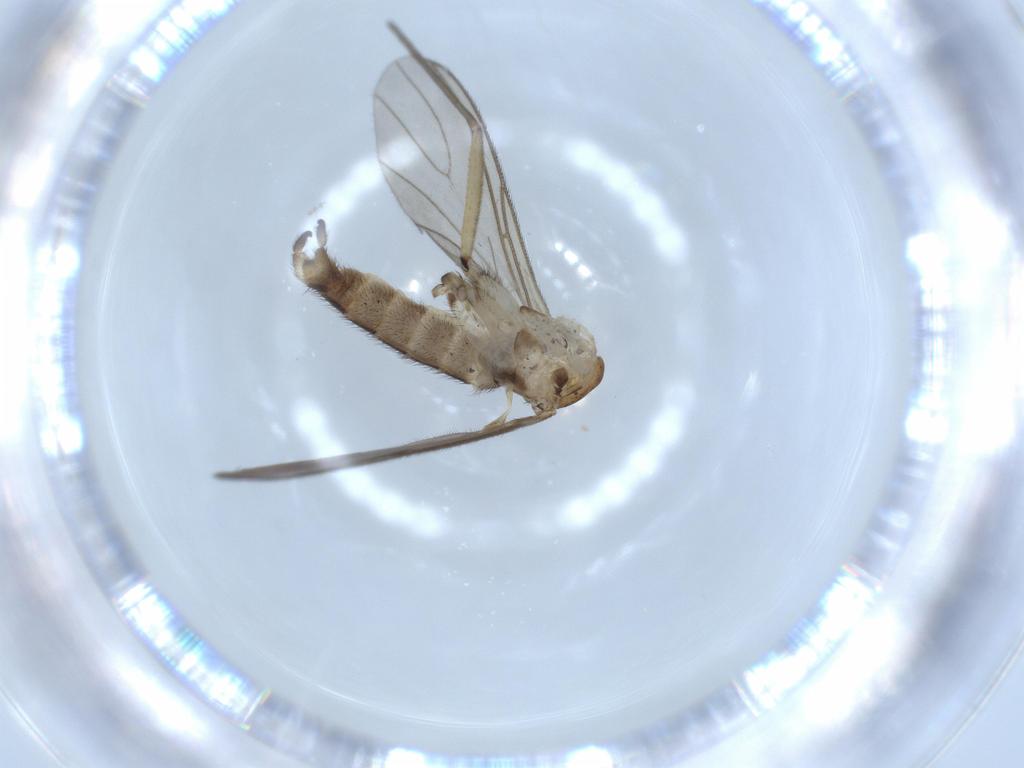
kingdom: Animalia
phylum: Arthropoda
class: Insecta
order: Diptera
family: Sciaridae
